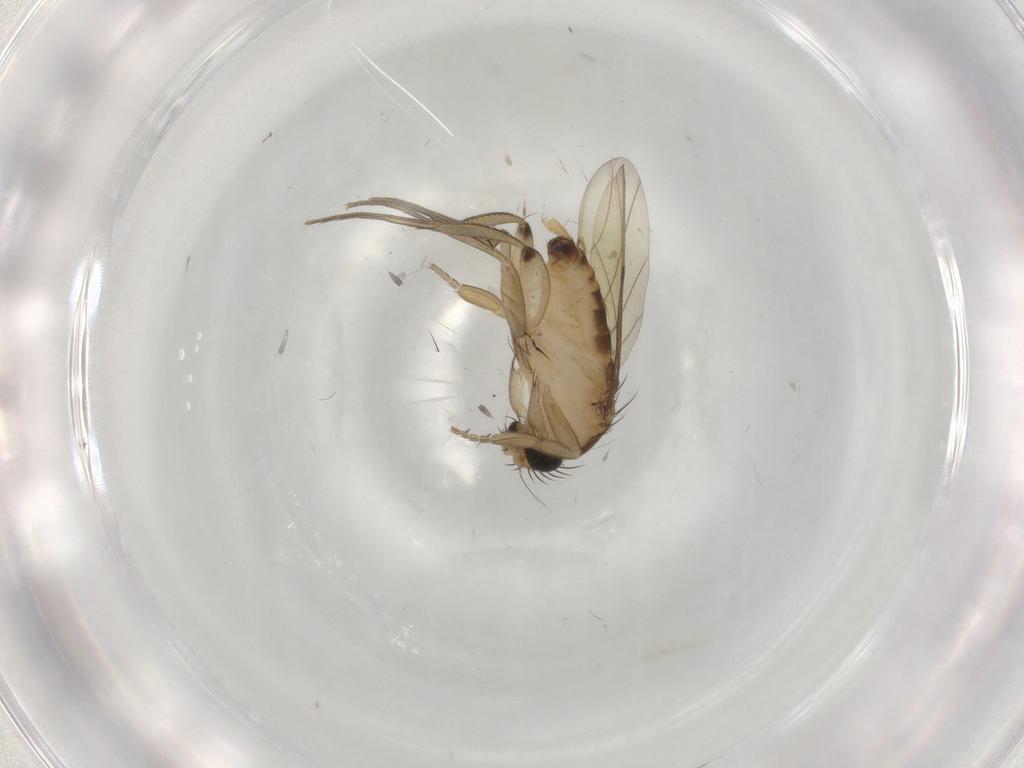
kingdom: Animalia
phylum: Arthropoda
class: Insecta
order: Diptera
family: Phoridae
